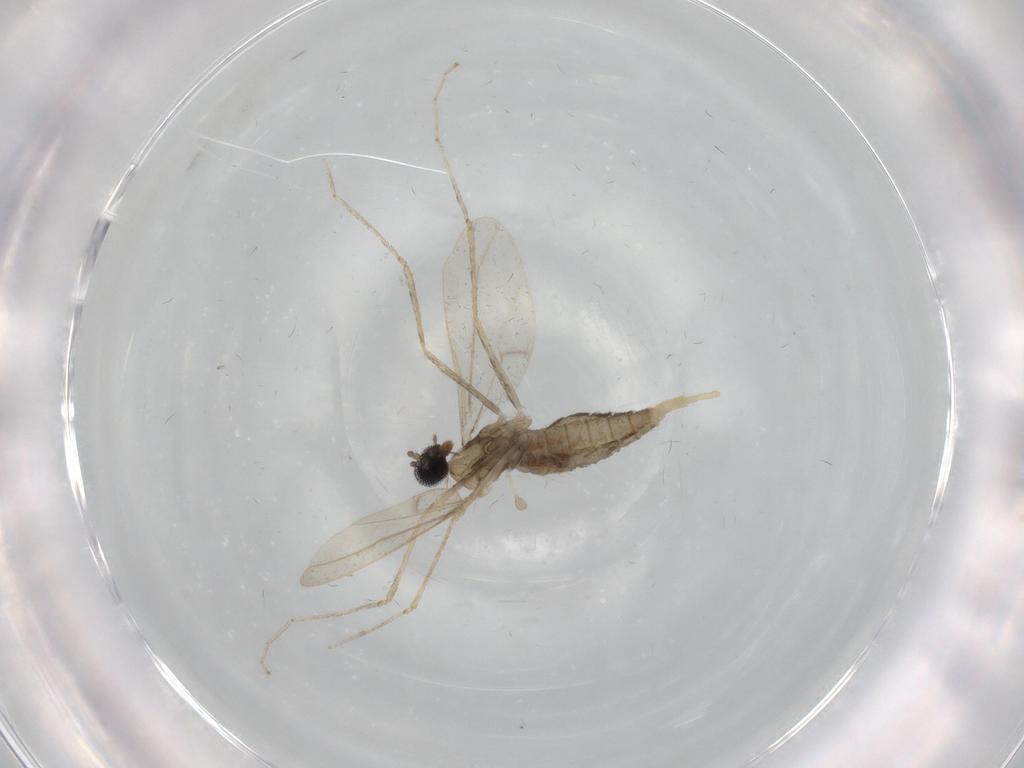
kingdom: Animalia
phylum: Arthropoda
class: Insecta
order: Diptera
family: Cecidomyiidae
